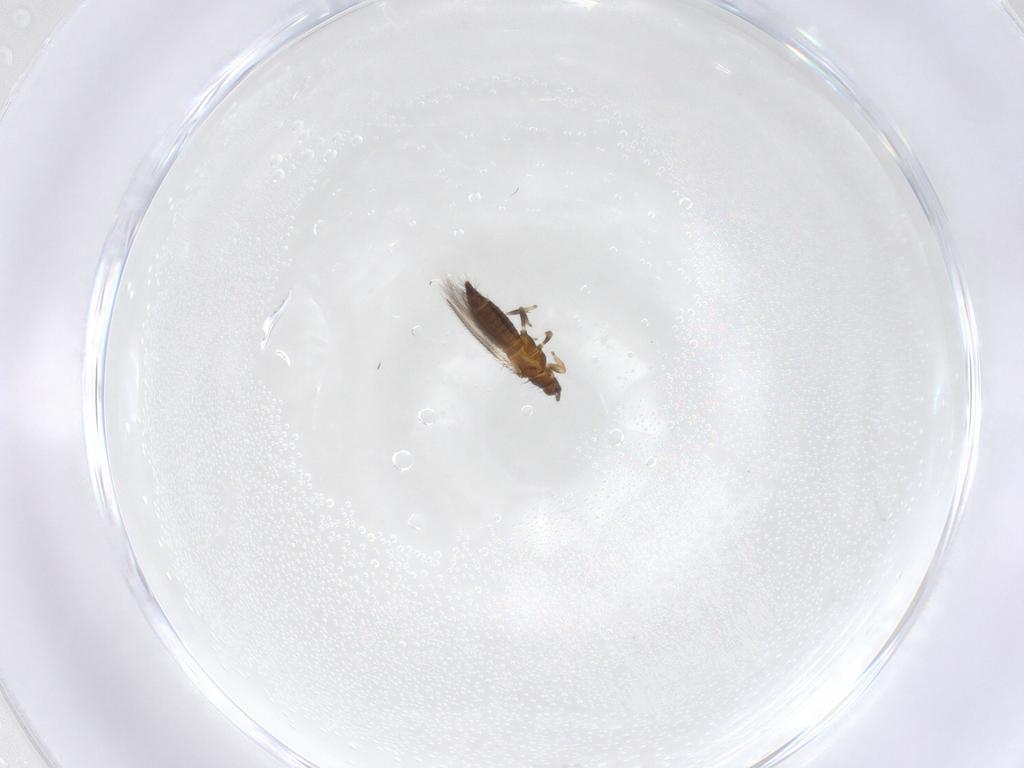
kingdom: Animalia
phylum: Arthropoda
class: Insecta
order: Thysanoptera
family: Thripidae
